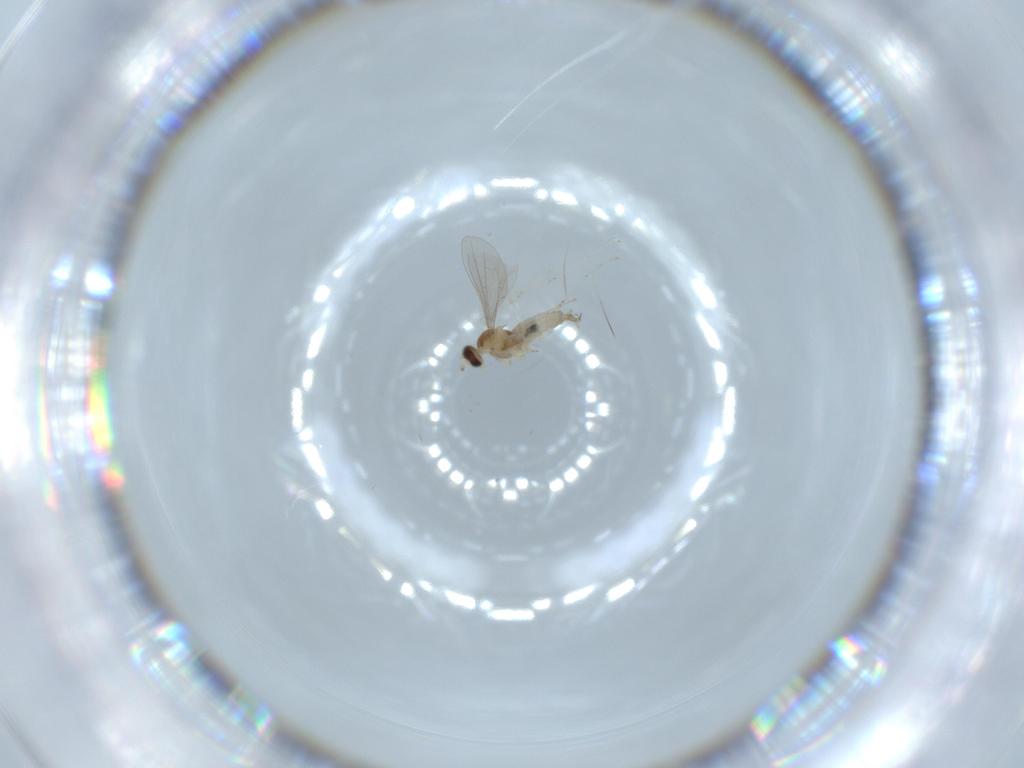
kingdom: Animalia
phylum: Arthropoda
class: Insecta
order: Diptera
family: Cecidomyiidae
